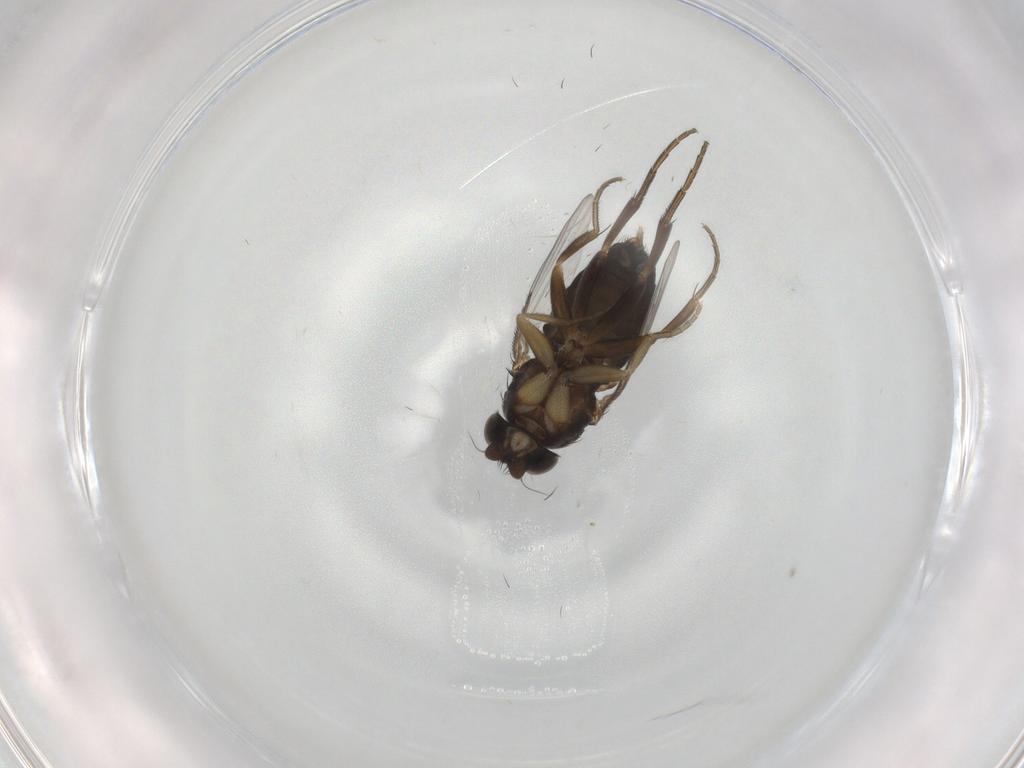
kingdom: Animalia
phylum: Arthropoda
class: Insecta
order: Diptera
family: Phoridae
